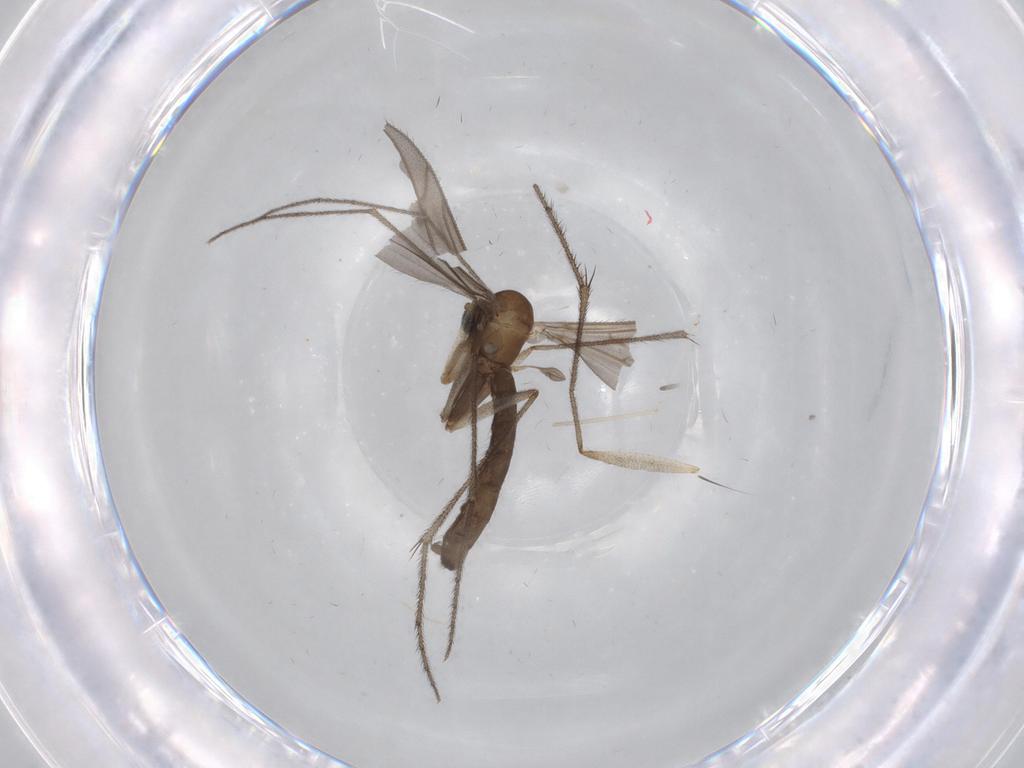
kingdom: Animalia
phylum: Arthropoda
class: Insecta
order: Diptera
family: Ditomyiidae
